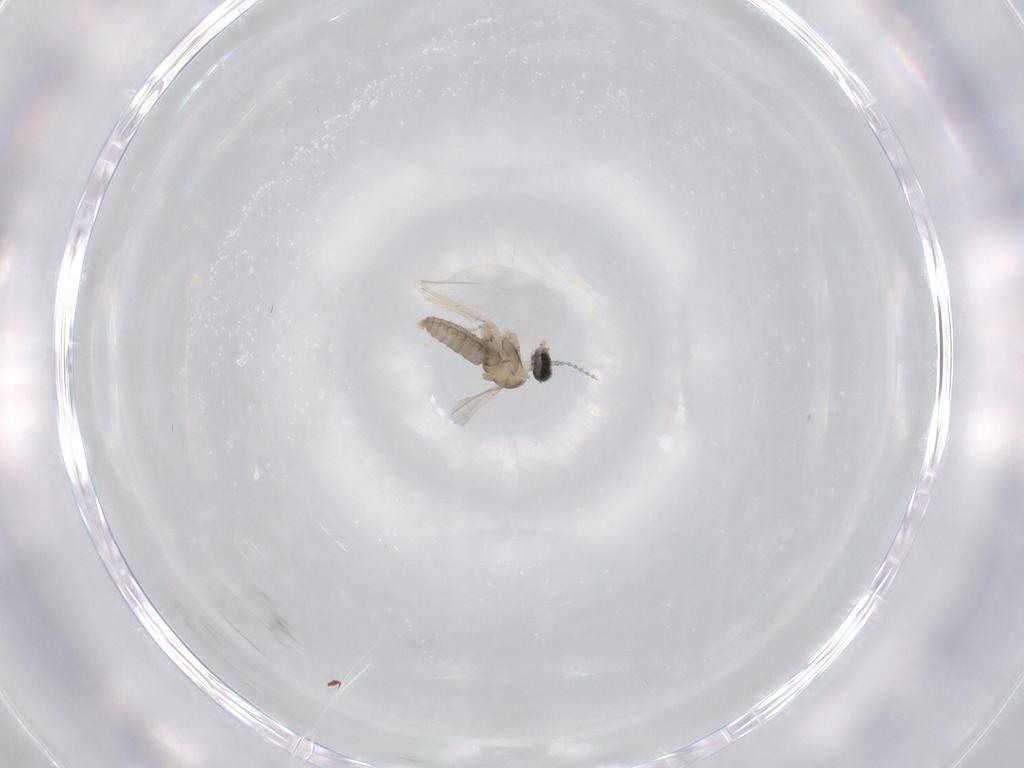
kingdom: Animalia
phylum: Arthropoda
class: Insecta
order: Diptera
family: Cecidomyiidae
